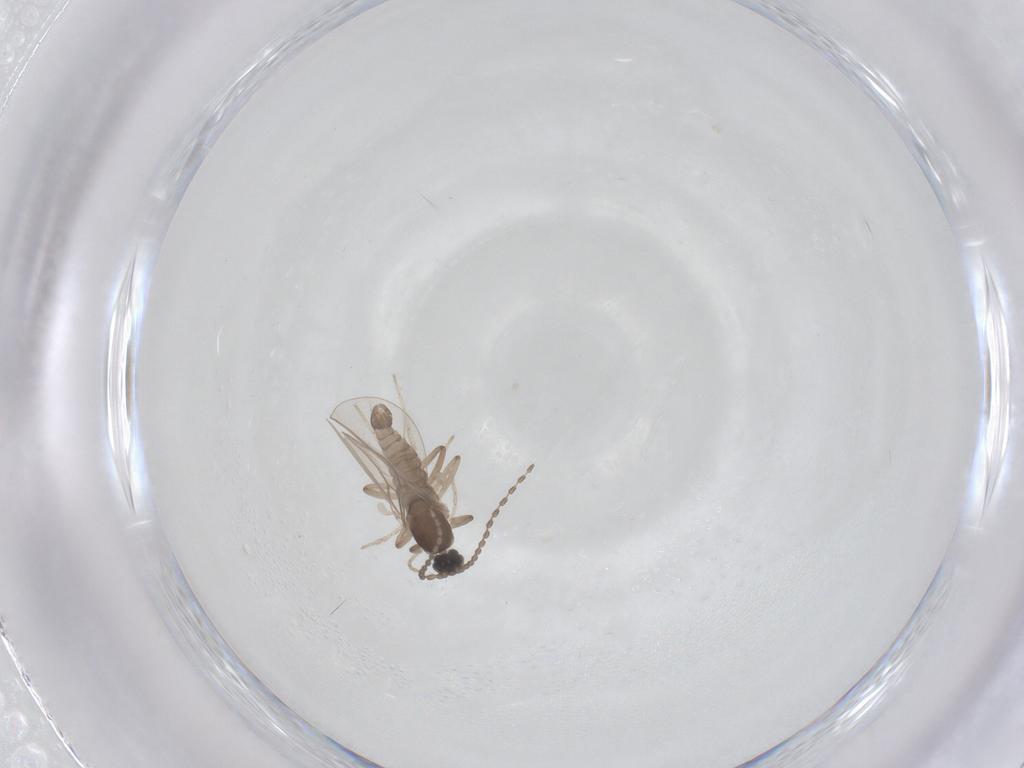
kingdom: Animalia
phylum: Arthropoda
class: Insecta
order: Diptera
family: Cecidomyiidae
